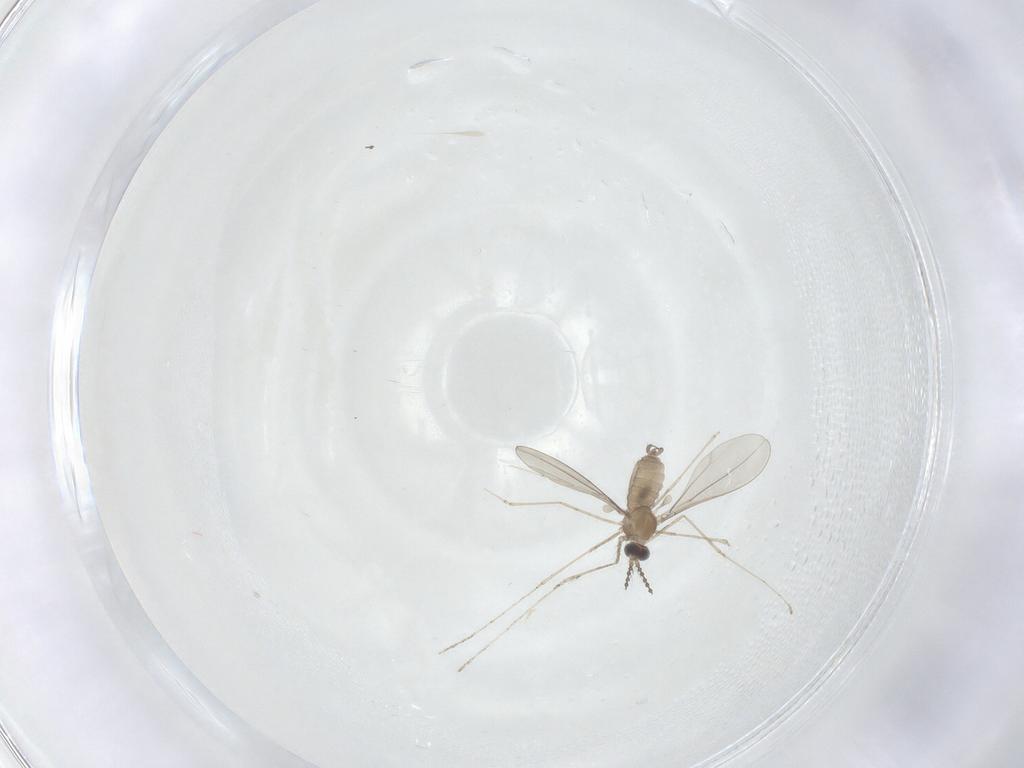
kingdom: Animalia
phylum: Arthropoda
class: Insecta
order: Diptera
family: Cecidomyiidae
